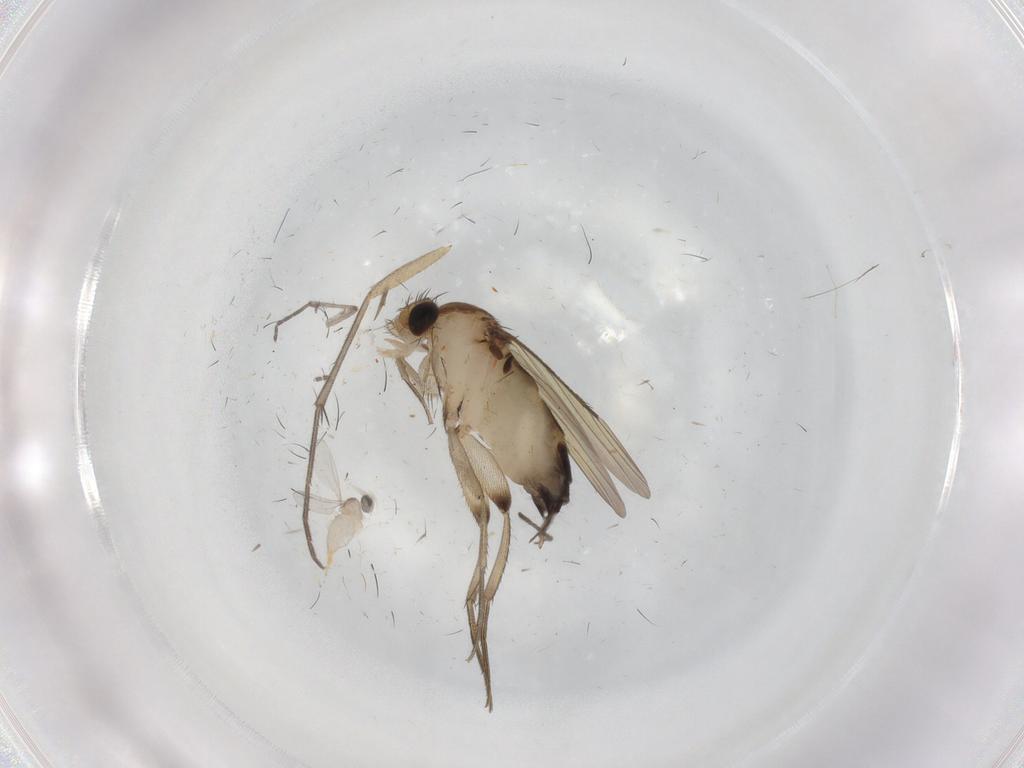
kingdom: Animalia
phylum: Arthropoda
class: Insecta
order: Diptera
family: Phoridae
